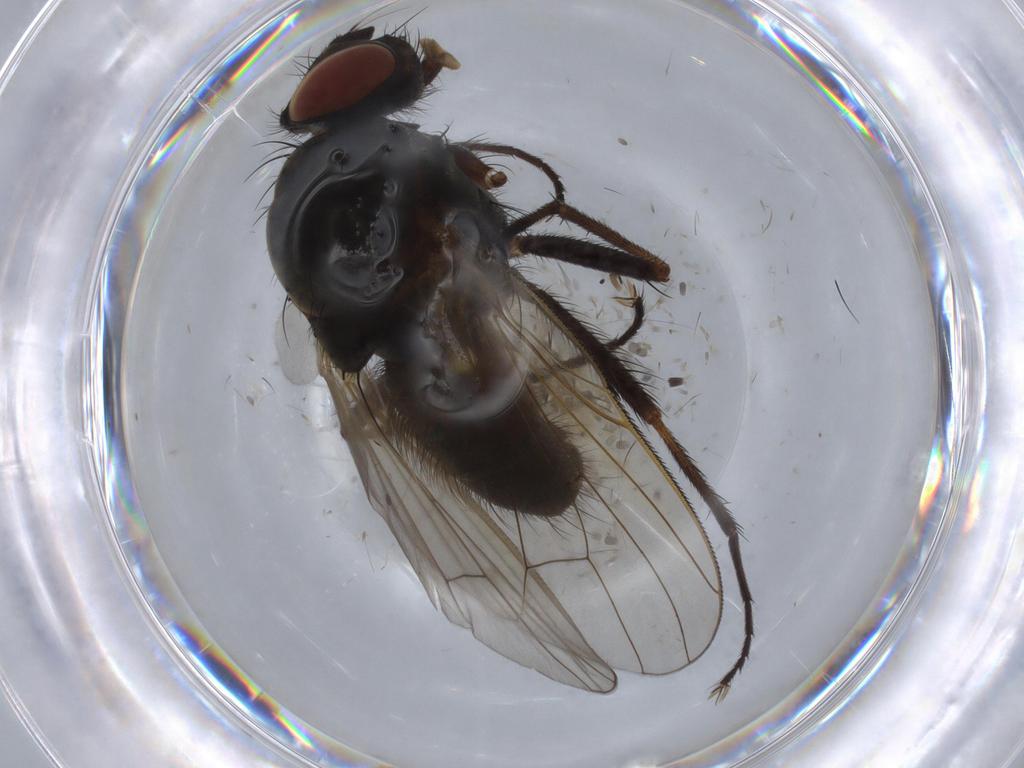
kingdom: Animalia
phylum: Arthropoda
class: Insecta
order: Diptera
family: Anthomyiidae
